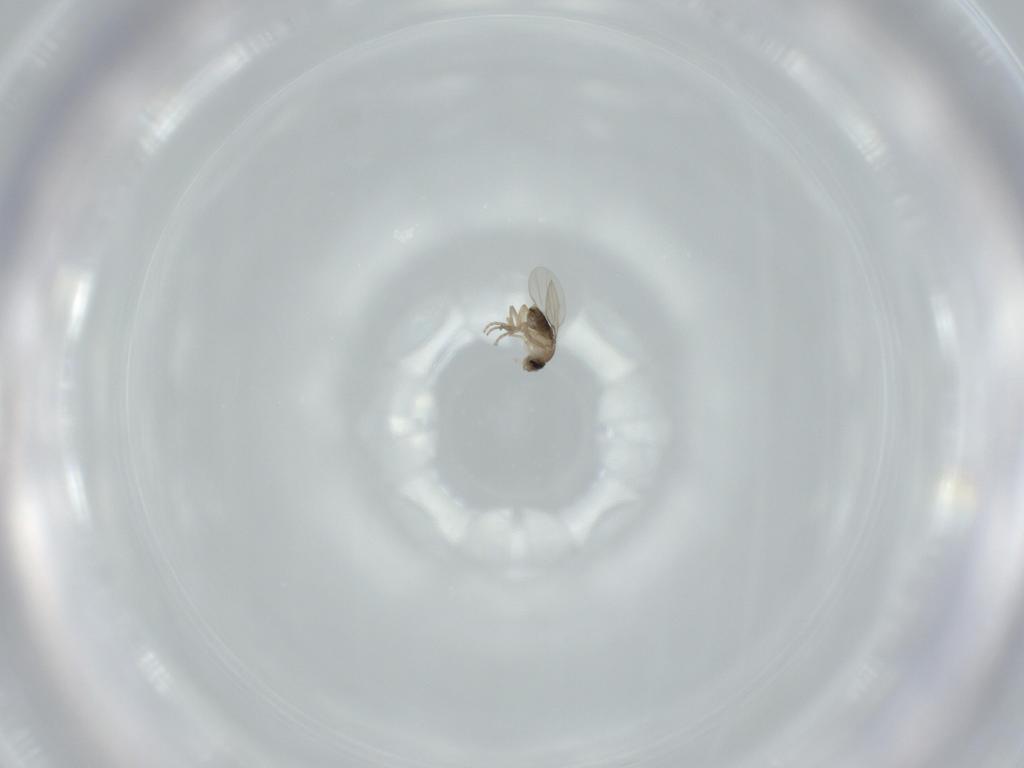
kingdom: Animalia
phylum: Arthropoda
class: Insecta
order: Diptera
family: Phoridae
